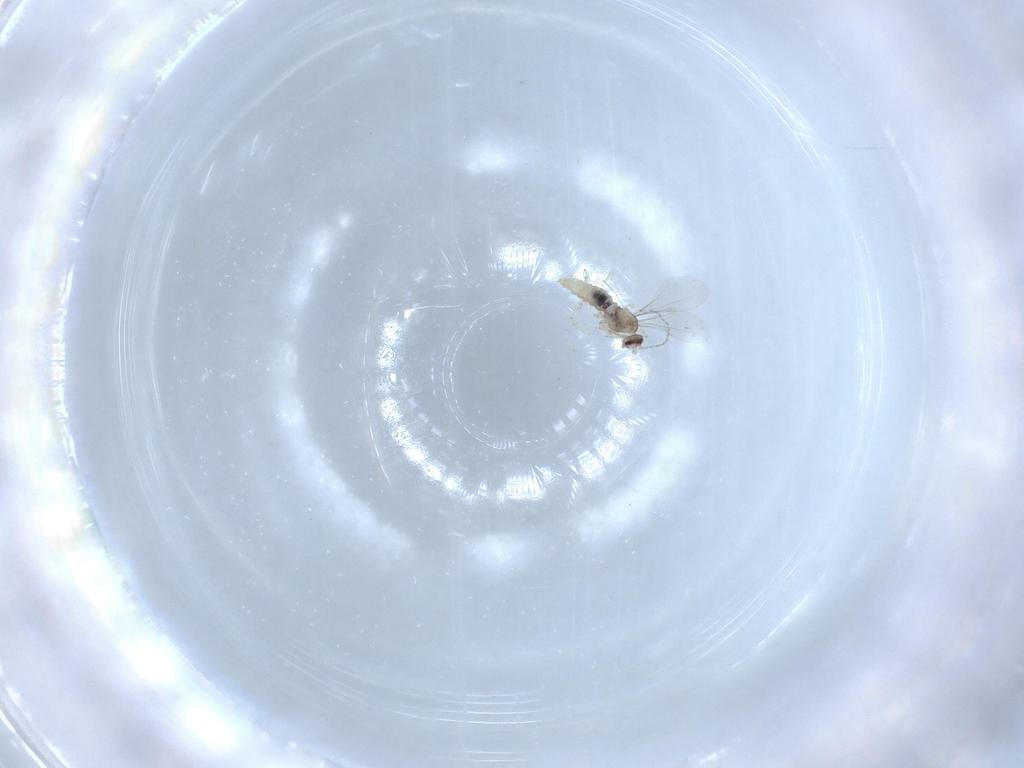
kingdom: Animalia
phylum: Arthropoda
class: Insecta
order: Diptera
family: Sciaridae
